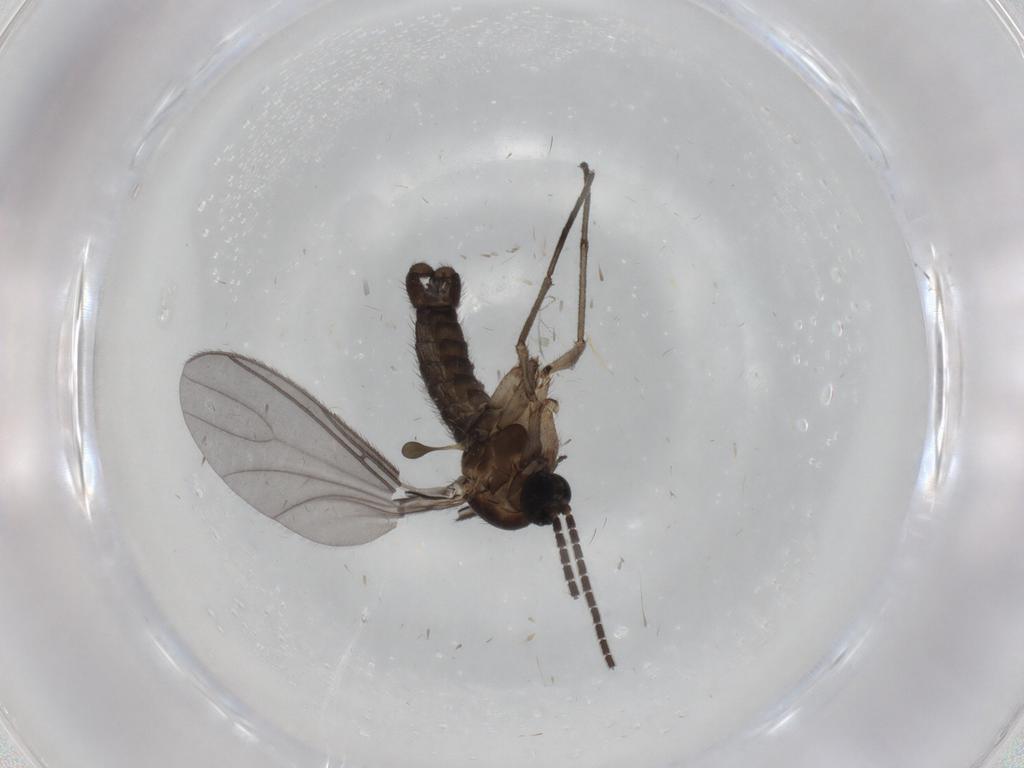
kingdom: Animalia
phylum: Arthropoda
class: Insecta
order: Diptera
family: Sciaridae
